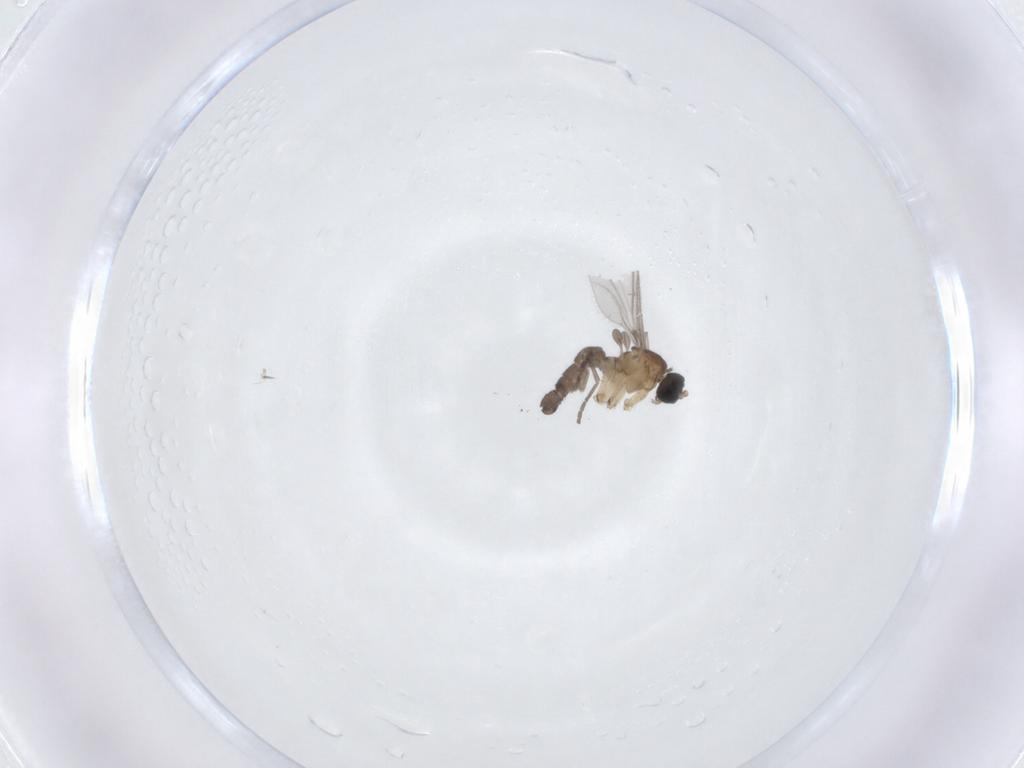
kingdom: Animalia
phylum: Arthropoda
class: Insecta
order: Diptera
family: Sciaridae
